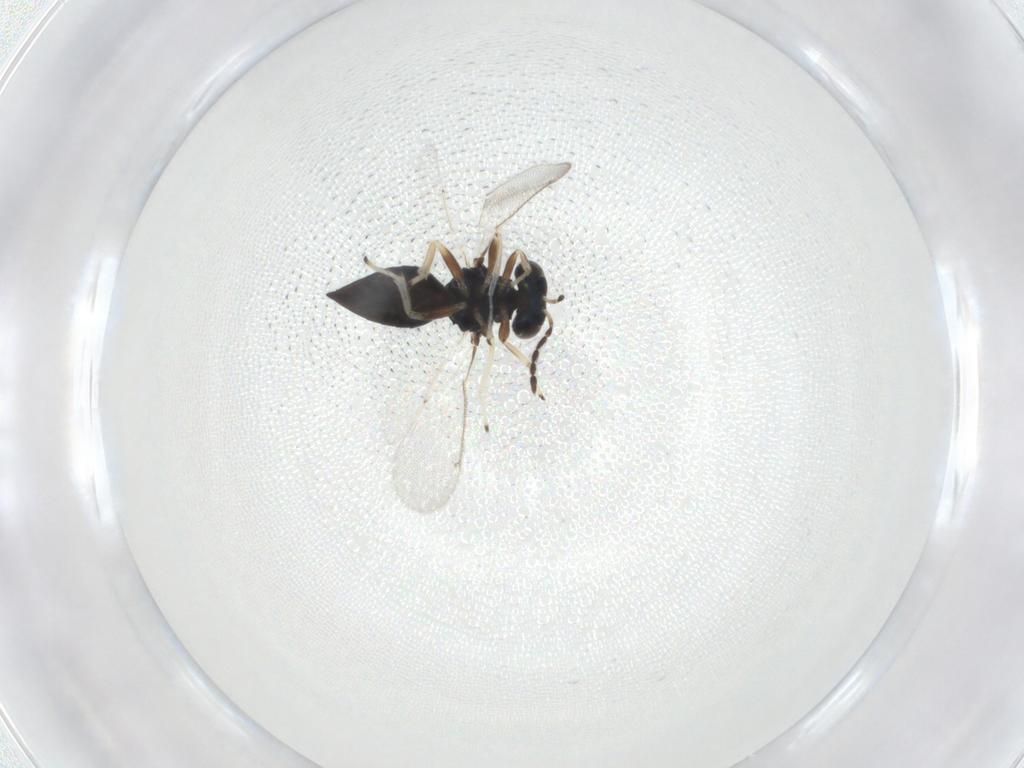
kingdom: Animalia
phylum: Arthropoda
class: Insecta
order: Hymenoptera
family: Eulophidae
